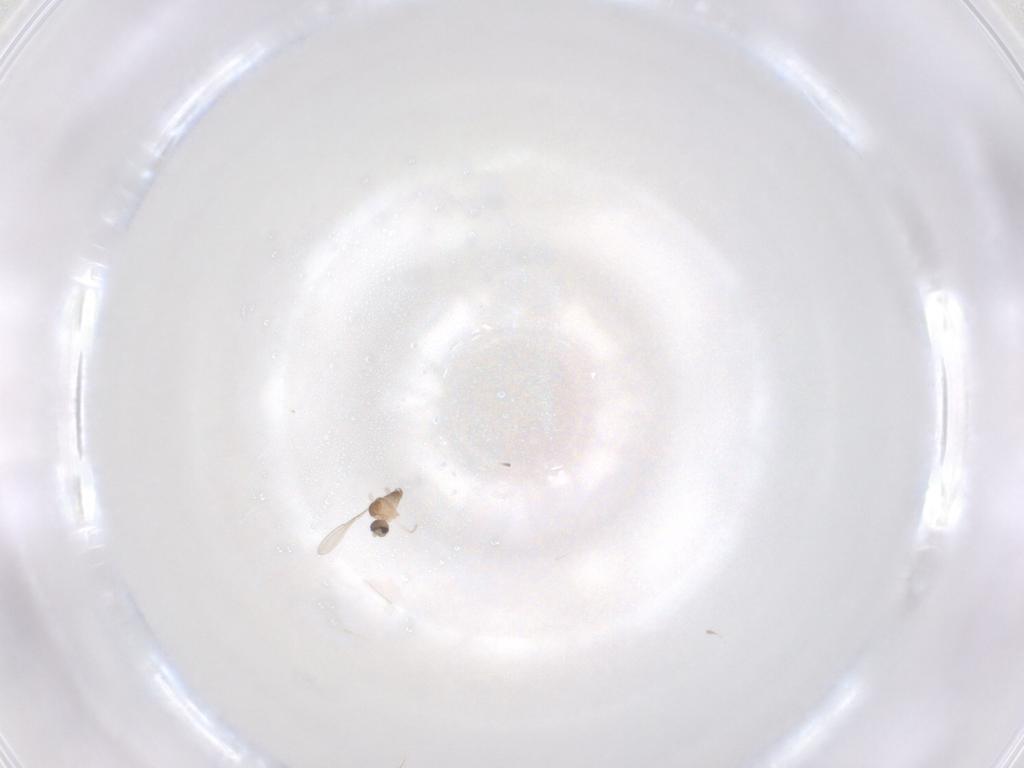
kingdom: Animalia
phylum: Arthropoda
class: Insecta
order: Diptera
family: Cecidomyiidae
